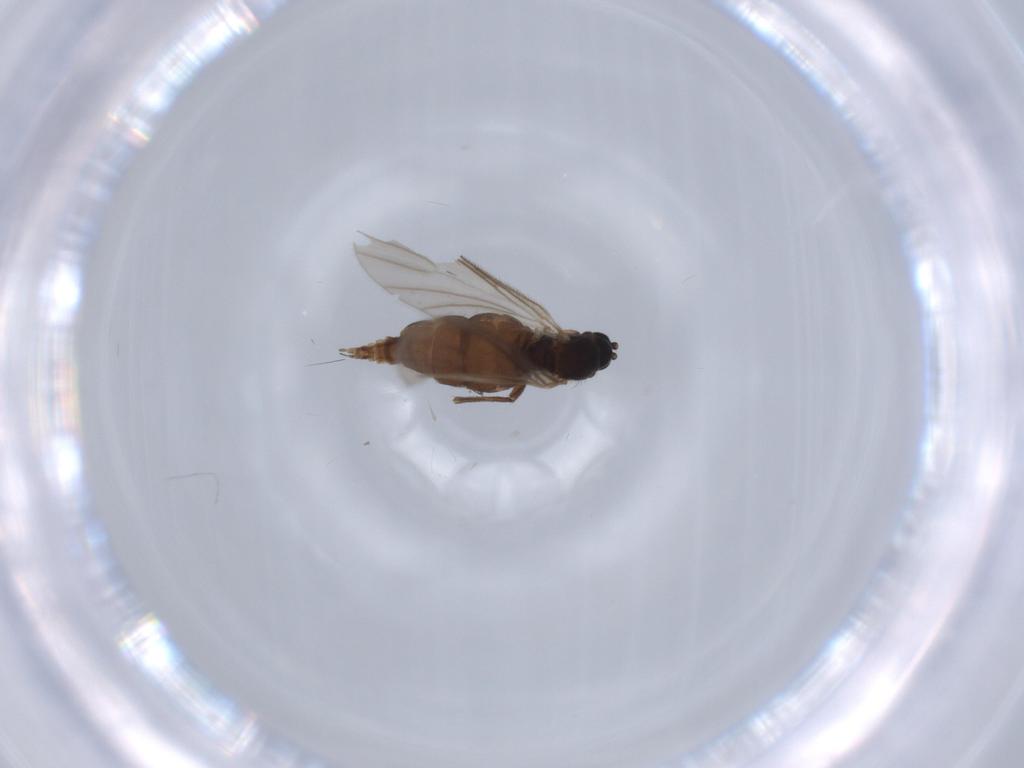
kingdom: Animalia
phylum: Arthropoda
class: Insecta
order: Diptera
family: Sciaridae
